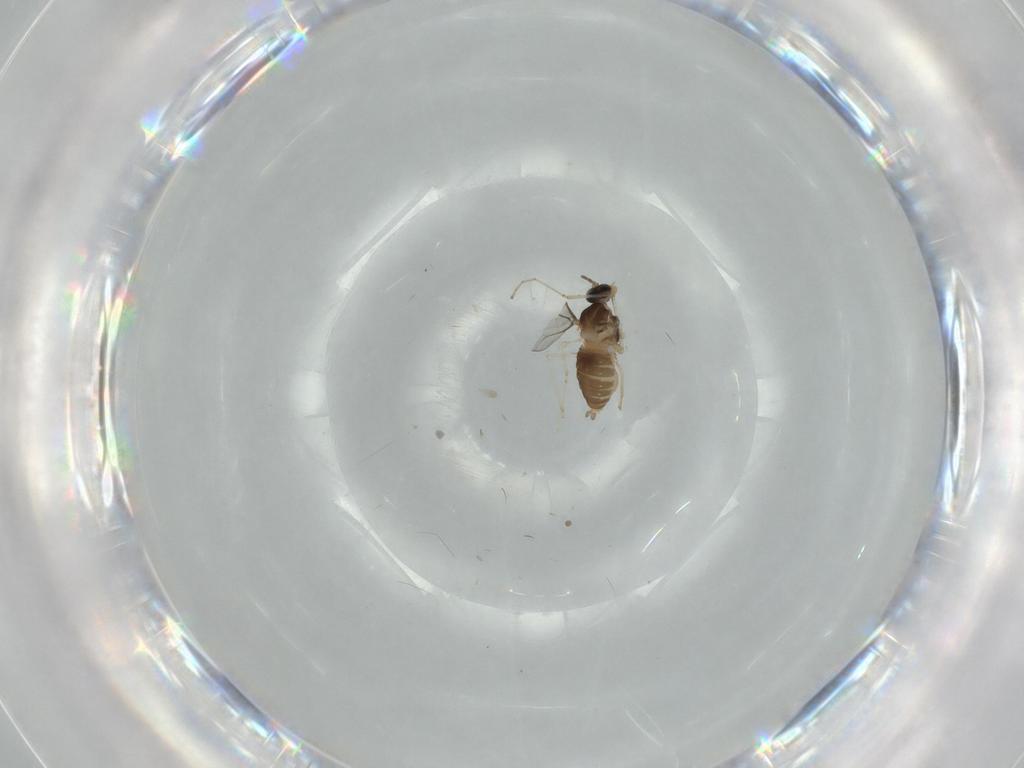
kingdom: Animalia
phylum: Arthropoda
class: Insecta
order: Diptera
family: Cecidomyiidae
